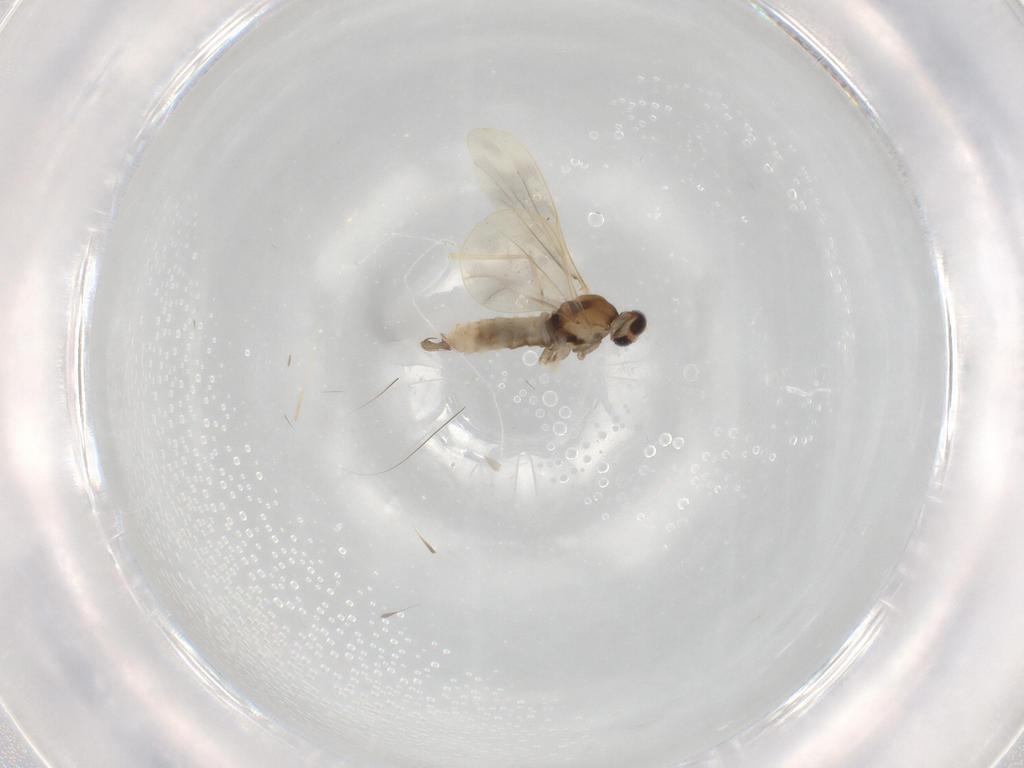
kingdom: Animalia
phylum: Arthropoda
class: Insecta
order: Diptera
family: Cecidomyiidae
